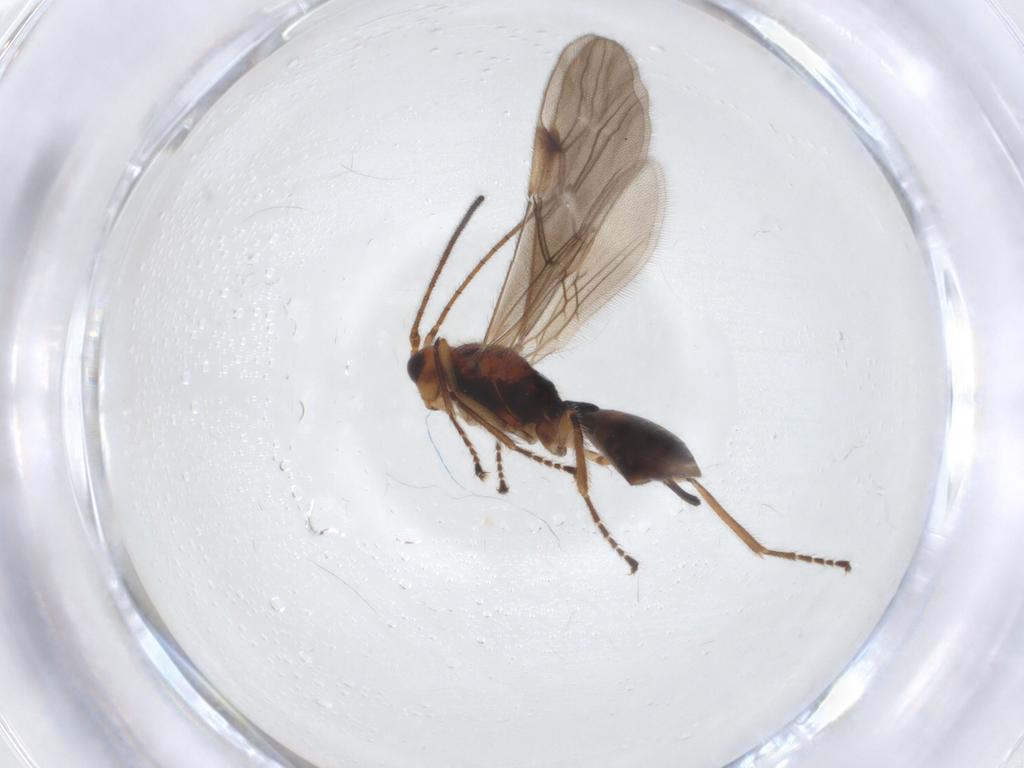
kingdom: Animalia
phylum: Arthropoda
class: Insecta
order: Hymenoptera
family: Braconidae
